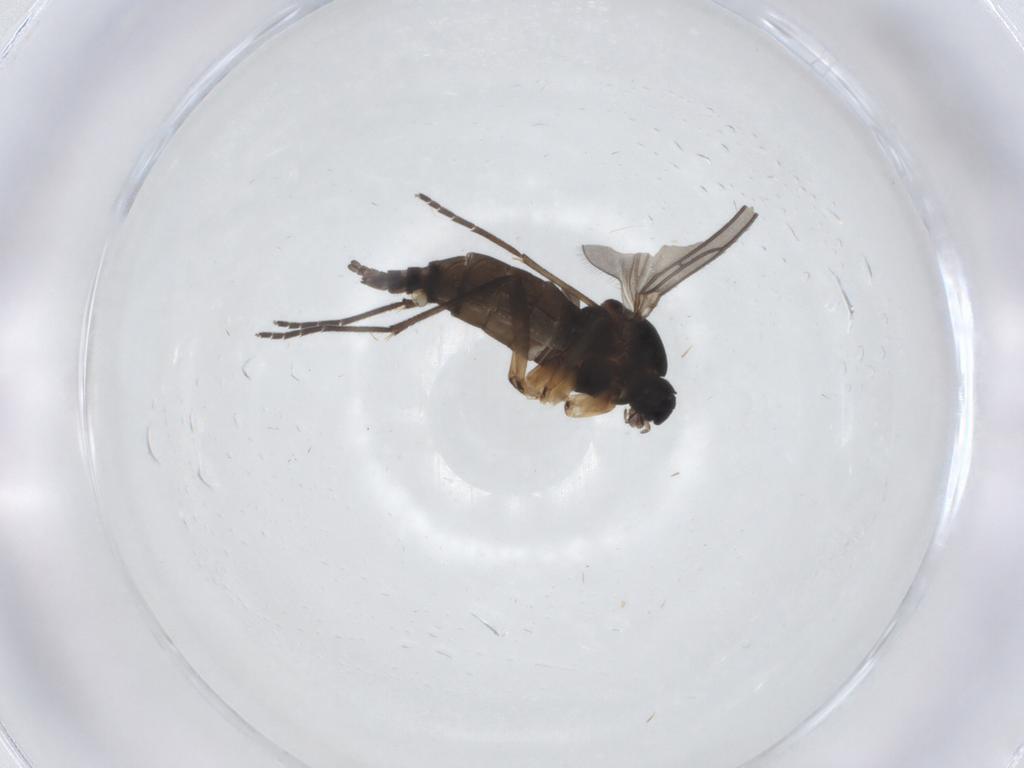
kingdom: Animalia
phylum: Arthropoda
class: Insecta
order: Diptera
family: Sciaridae
